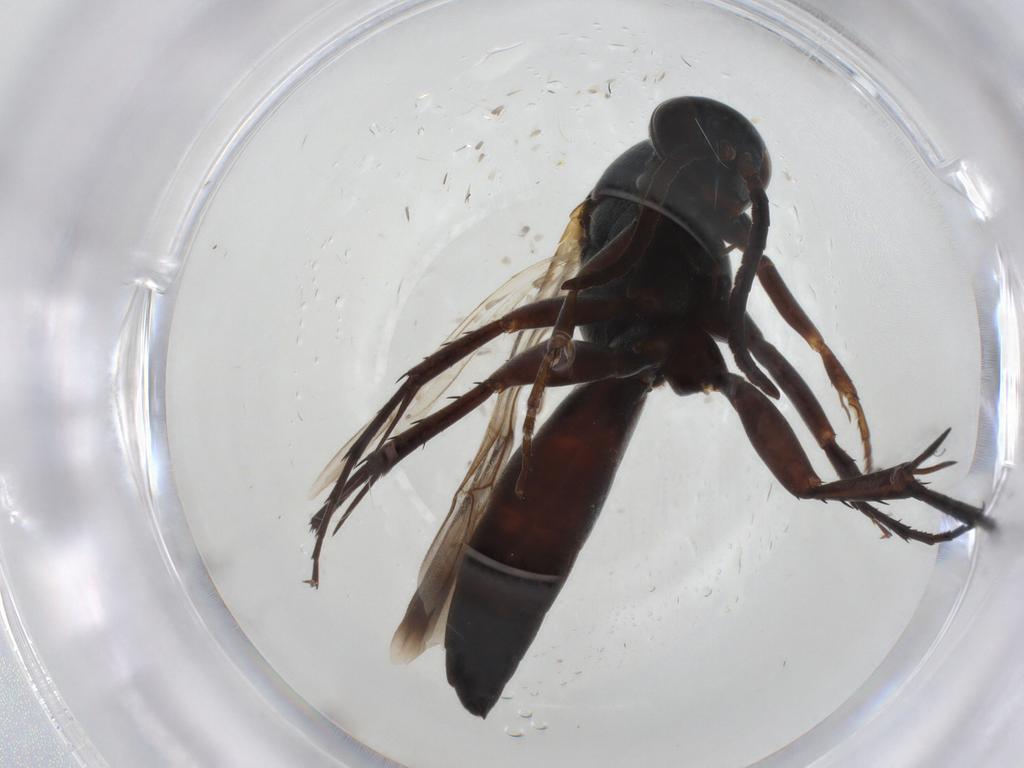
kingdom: Animalia
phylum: Arthropoda
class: Insecta
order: Hymenoptera
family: Pompilidae
